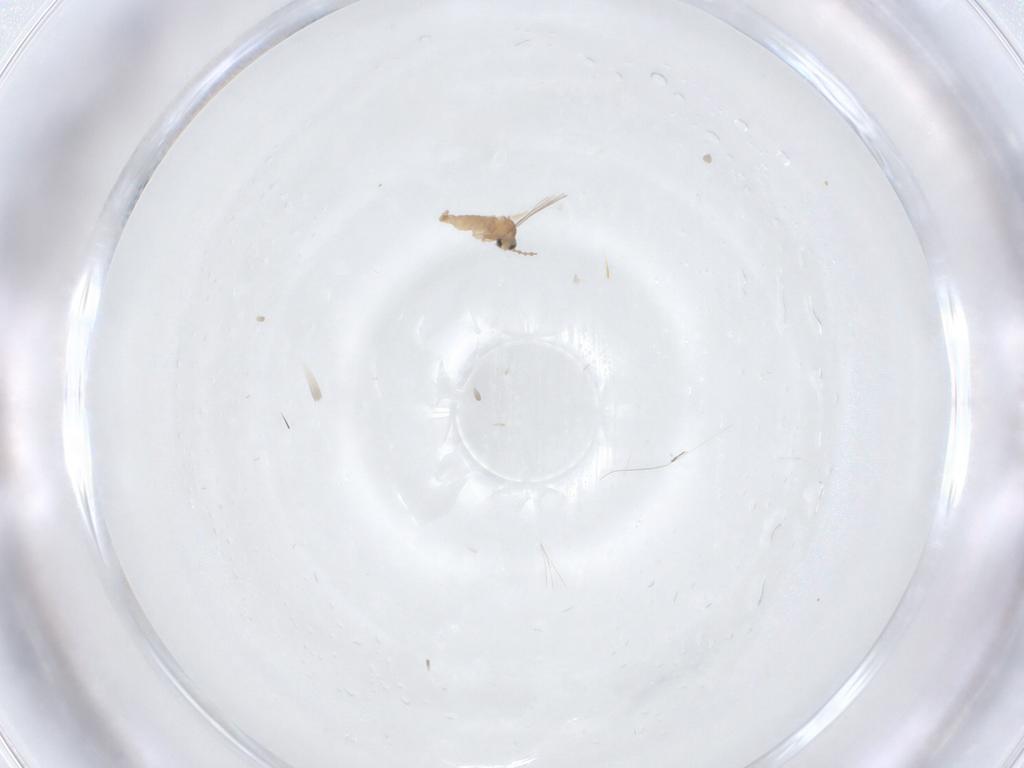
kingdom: Animalia
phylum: Arthropoda
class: Insecta
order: Diptera
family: Cecidomyiidae
